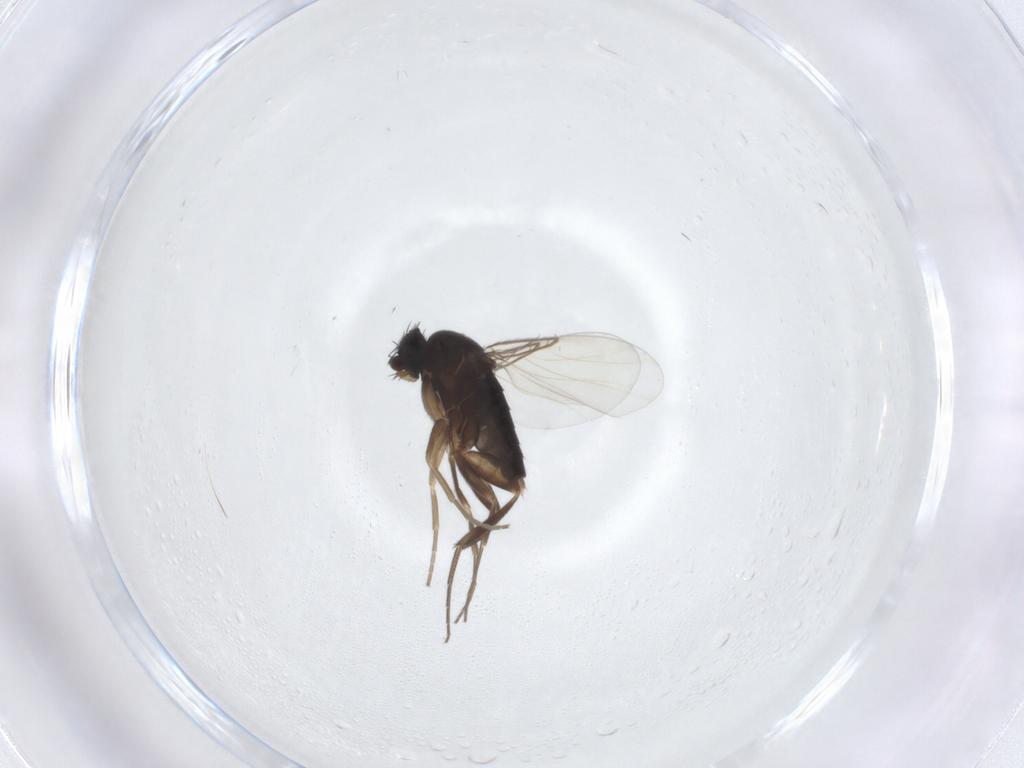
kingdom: Animalia
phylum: Arthropoda
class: Insecta
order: Diptera
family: Phoridae
